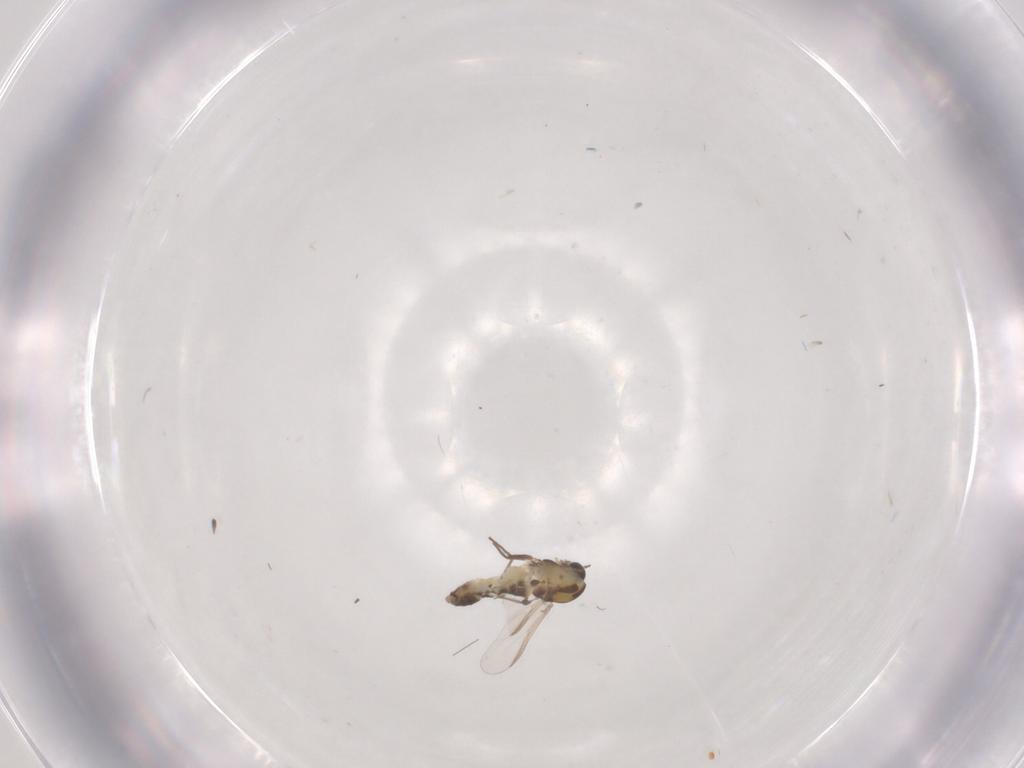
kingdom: Animalia
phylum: Arthropoda
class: Insecta
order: Diptera
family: Chironomidae
